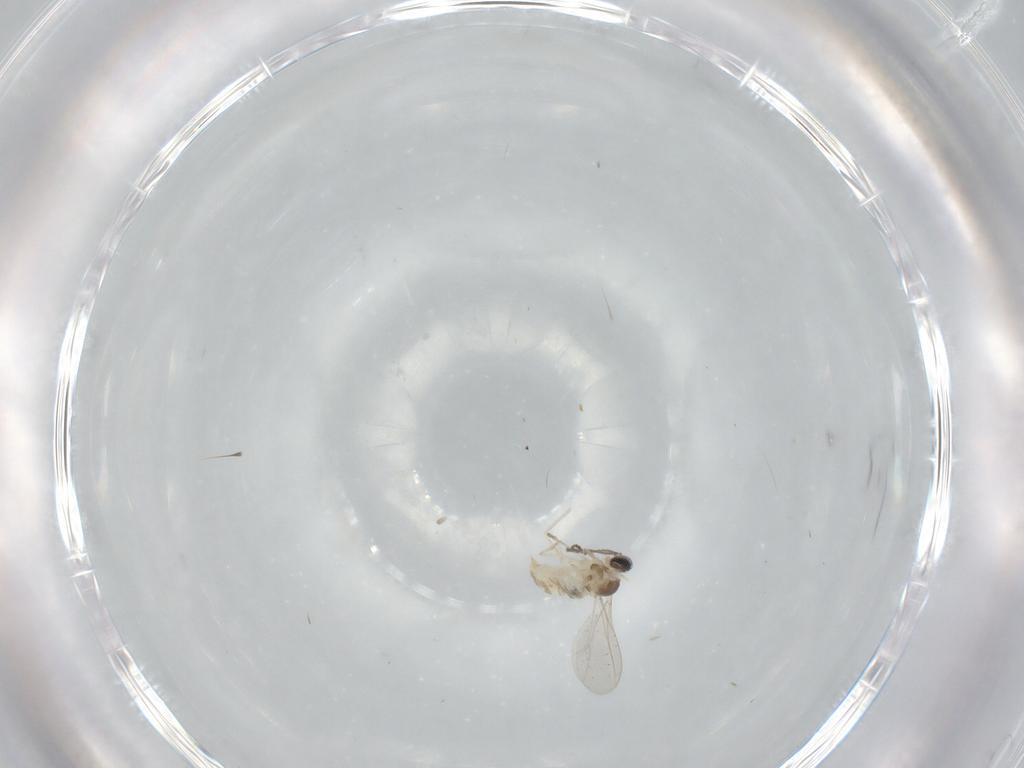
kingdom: Animalia
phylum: Arthropoda
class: Insecta
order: Diptera
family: Cecidomyiidae
